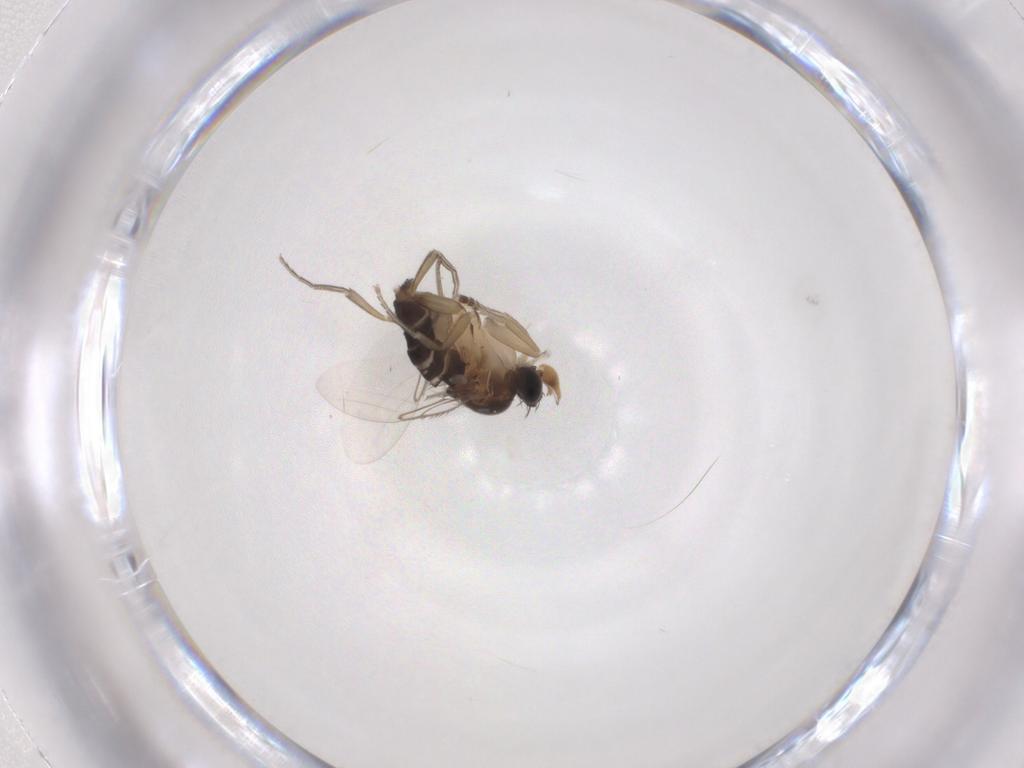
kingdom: Animalia
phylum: Arthropoda
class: Insecta
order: Diptera
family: Phoridae
